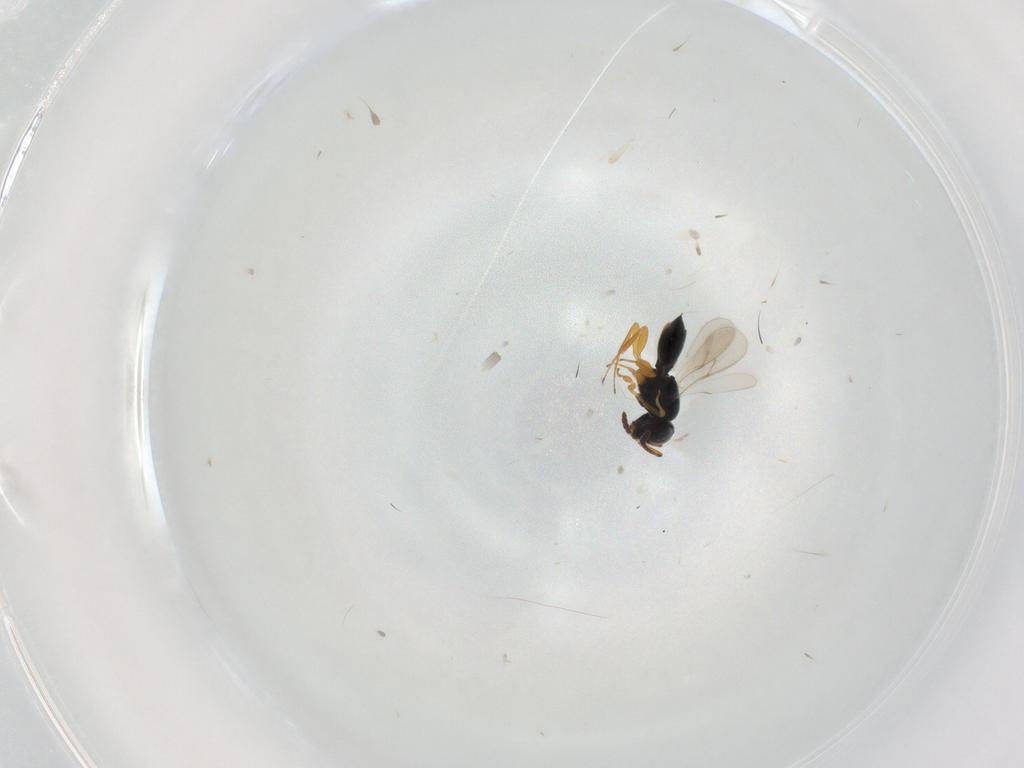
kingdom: Animalia
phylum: Arthropoda
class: Insecta
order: Hymenoptera
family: Scelionidae
